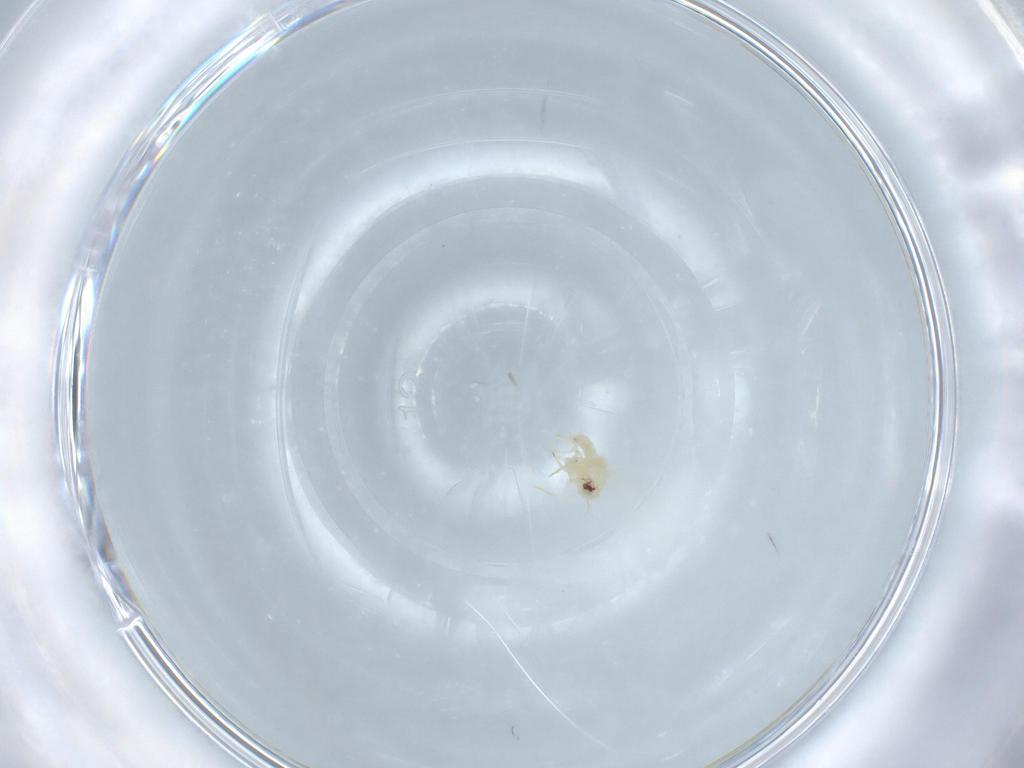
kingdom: Animalia
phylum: Arthropoda
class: Insecta
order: Hemiptera
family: Aleyrodidae
